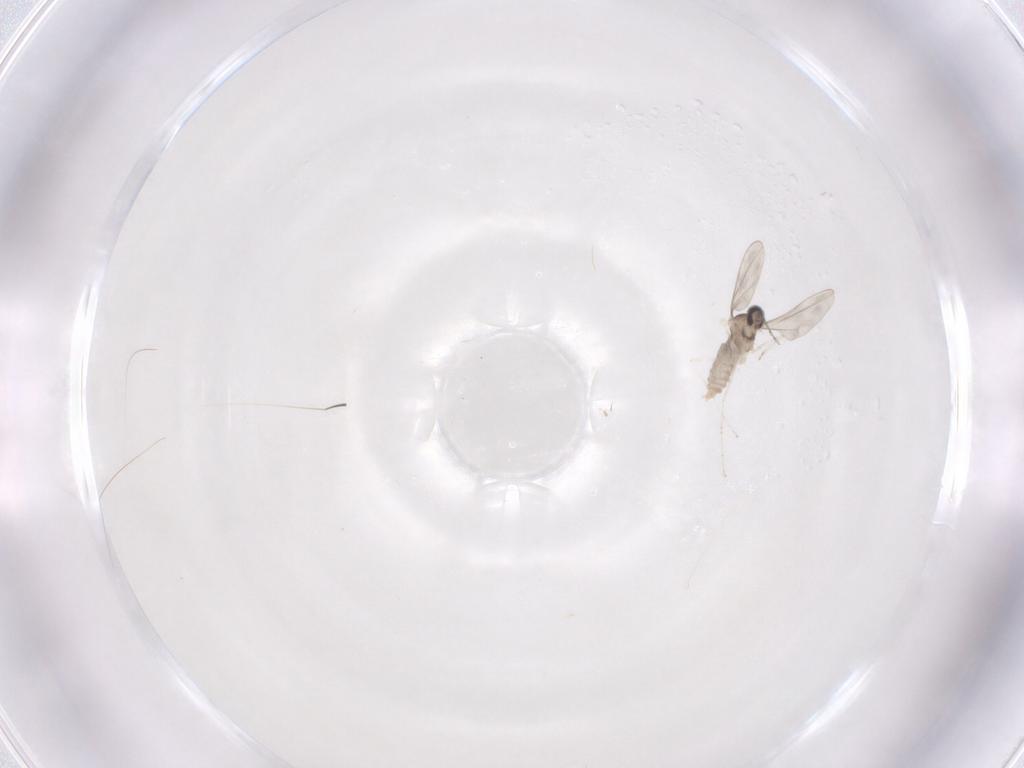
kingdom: Animalia
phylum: Arthropoda
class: Insecta
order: Diptera
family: Cecidomyiidae
